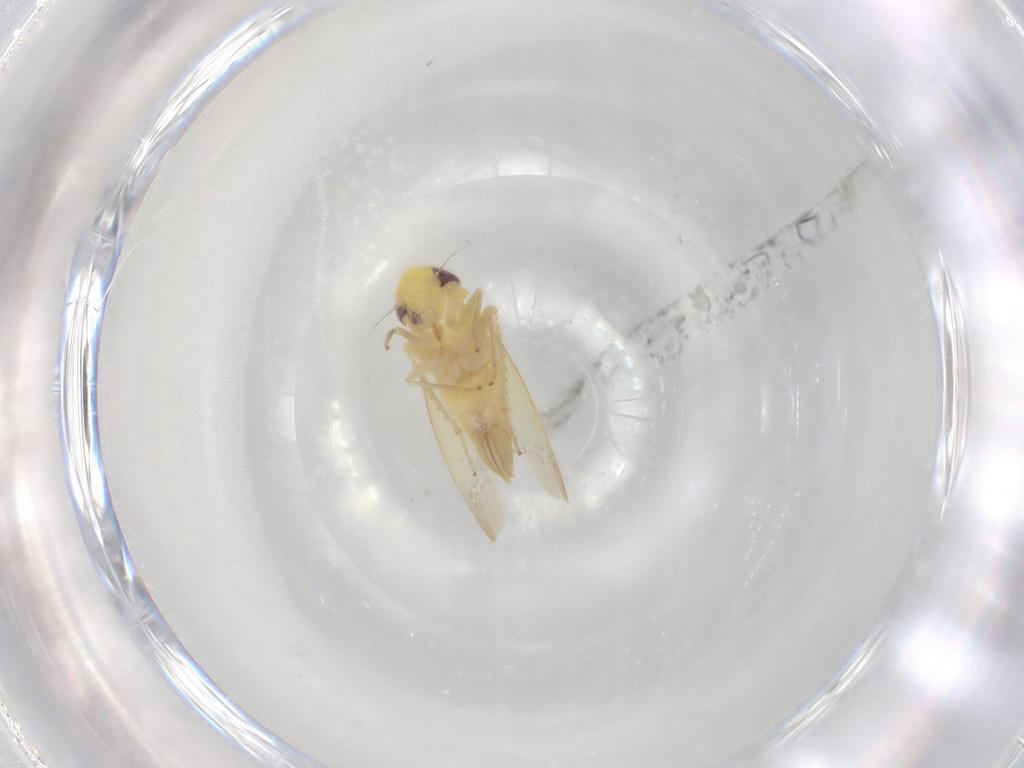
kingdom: Animalia
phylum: Arthropoda
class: Insecta
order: Hemiptera
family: Cicadellidae
